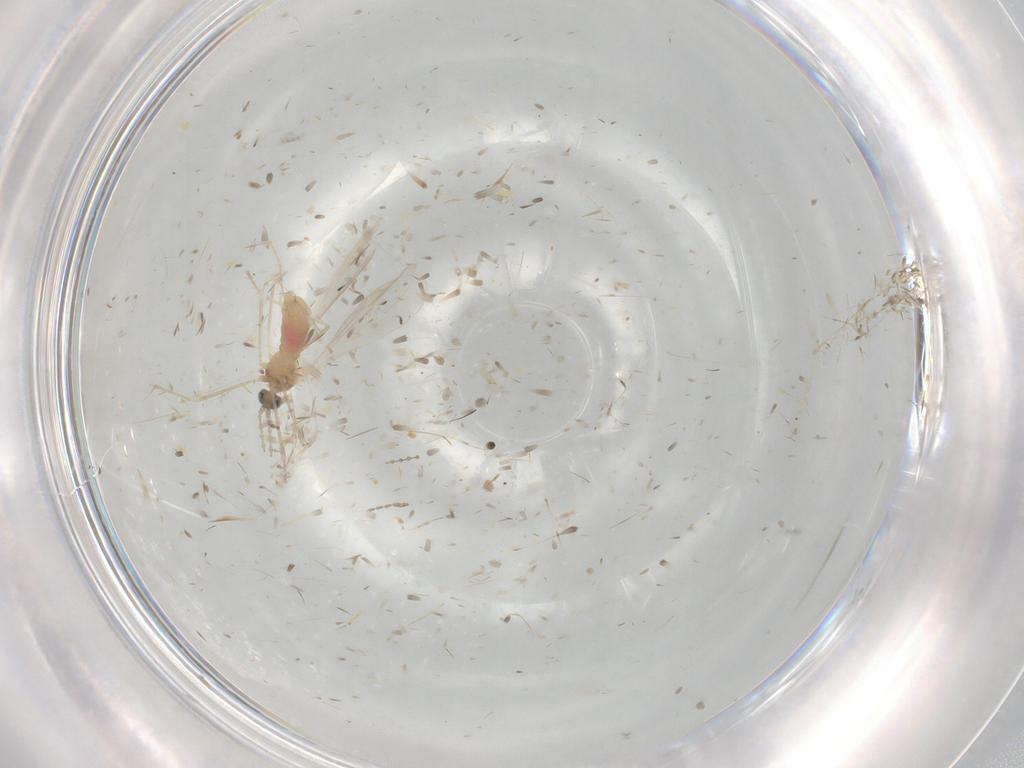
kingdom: Animalia
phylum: Arthropoda
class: Insecta
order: Diptera
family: Cecidomyiidae
